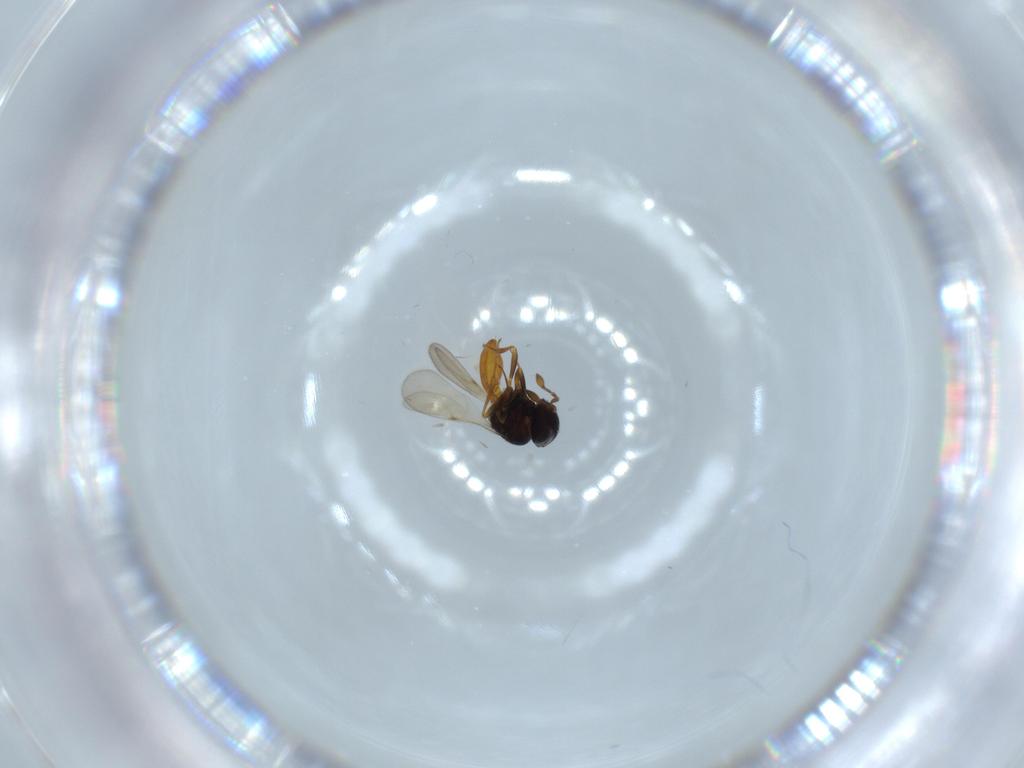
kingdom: Animalia
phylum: Arthropoda
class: Insecta
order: Hymenoptera
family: Scelionidae
